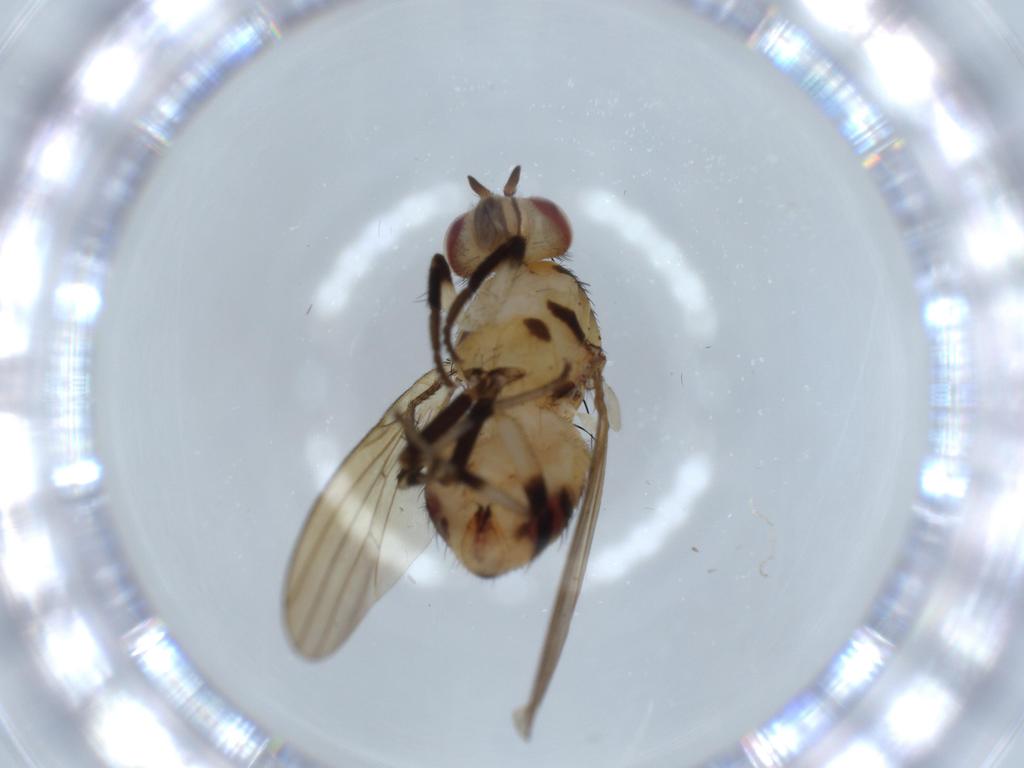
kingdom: Animalia
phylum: Arthropoda
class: Insecta
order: Diptera
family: Lauxaniidae
